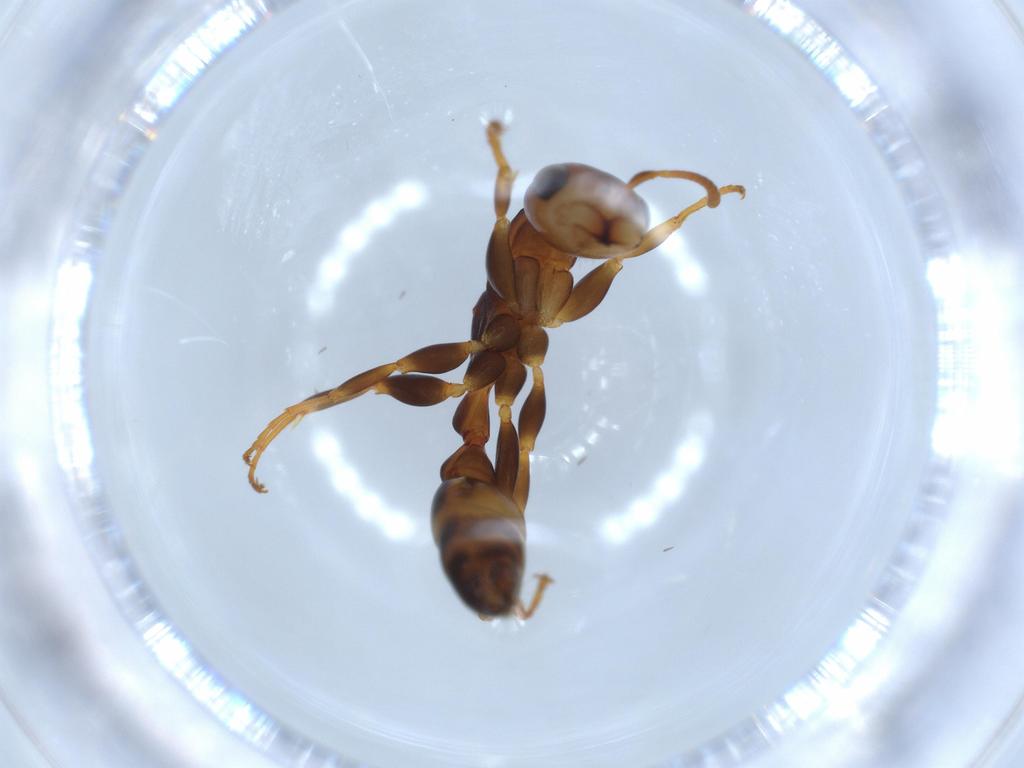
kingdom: Animalia
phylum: Arthropoda
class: Insecta
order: Hymenoptera
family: Formicidae
